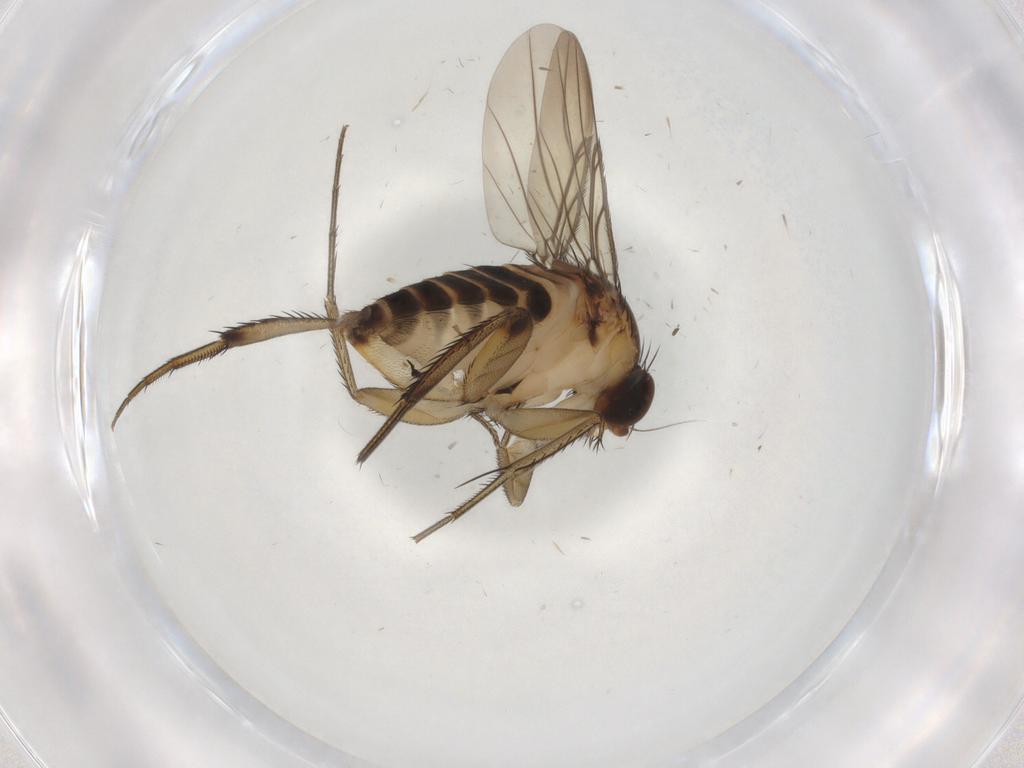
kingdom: Animalia
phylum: Arthropoda
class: Insecta
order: Diptera
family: Phoridae
